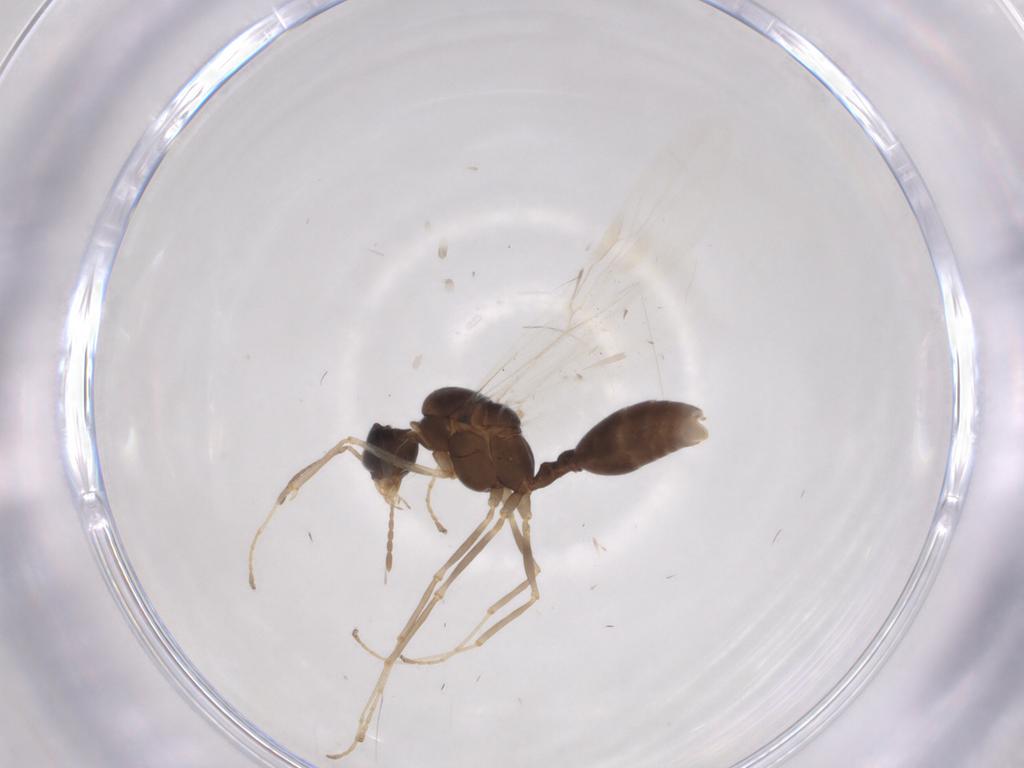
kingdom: Animalia
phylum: Arthropoda
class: Insecta
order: Hymenoptera
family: Formicidae
